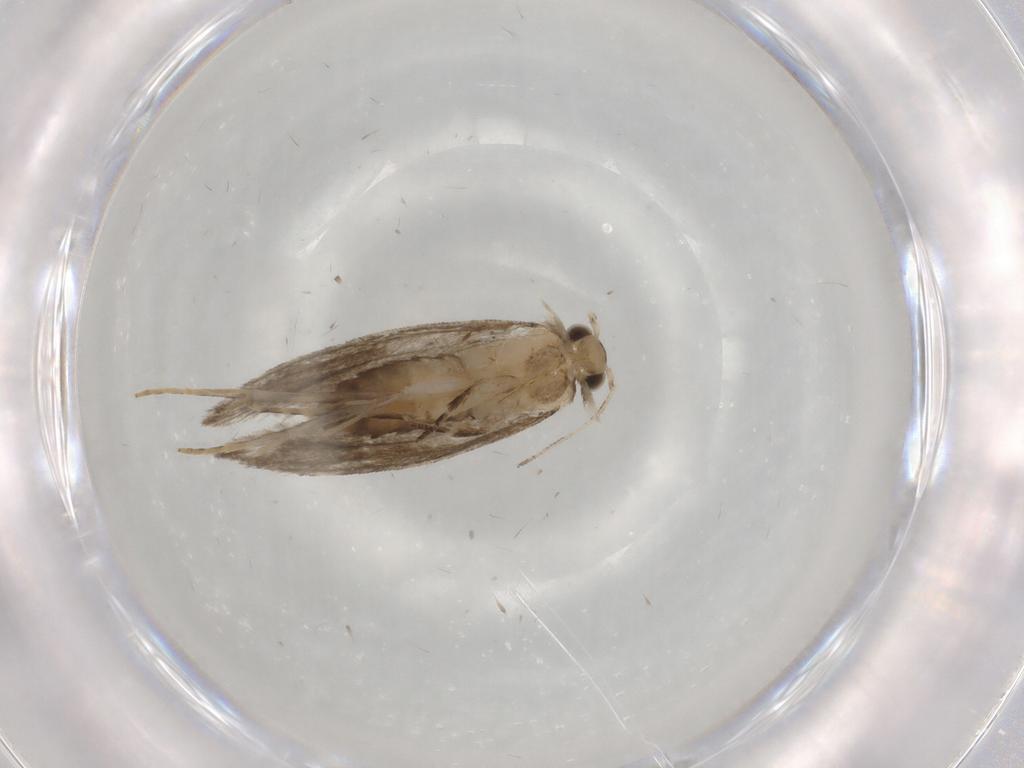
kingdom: Animalia
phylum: Arthropoda
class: Insecta
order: Lepidoptera
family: Tineidae
